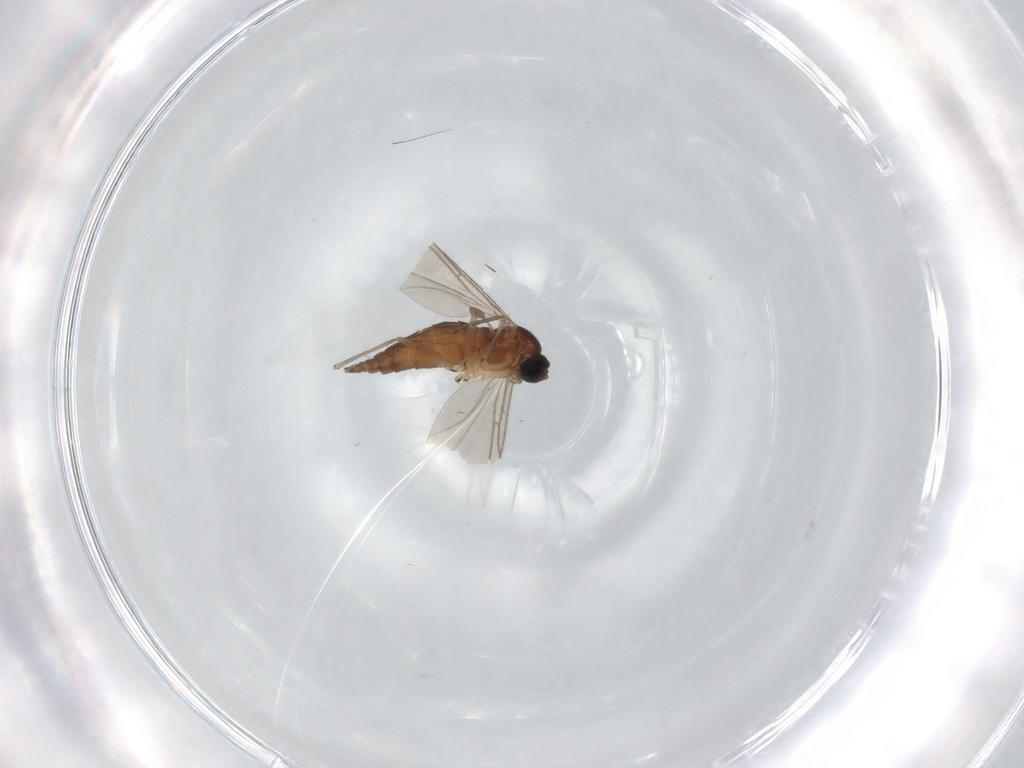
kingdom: Animalia
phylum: Arthropoda
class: Insecta
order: Diptera
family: Sciaridae
